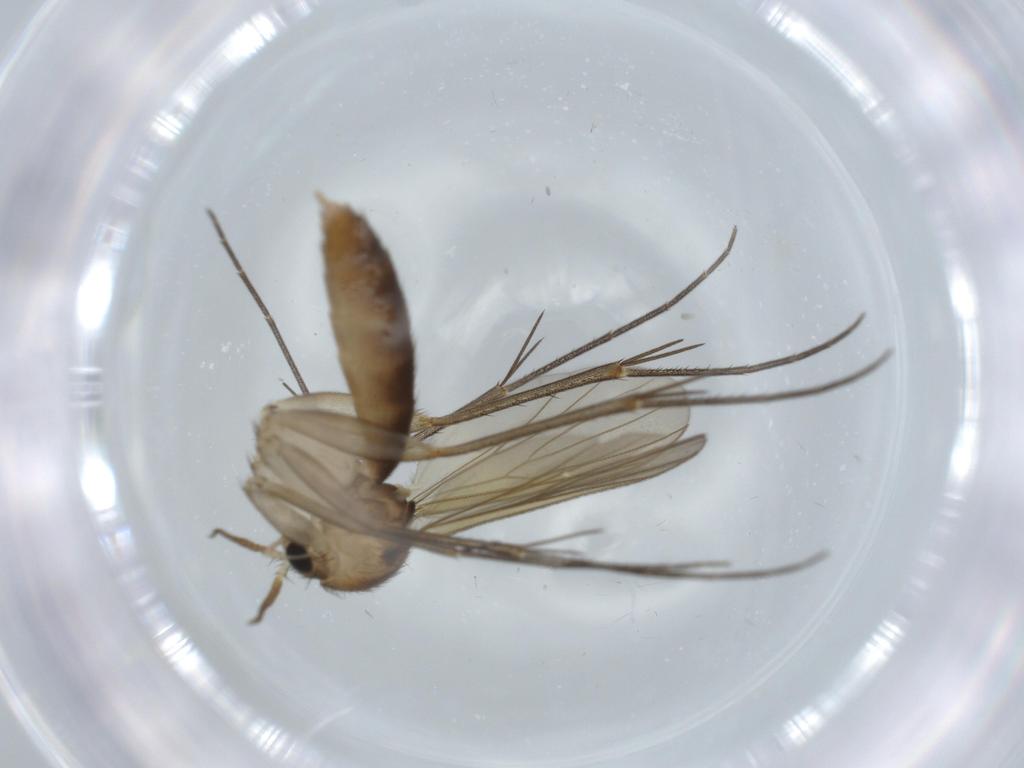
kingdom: Animalia
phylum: Arthropoda
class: Insecta
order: Diptera
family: Mycetophilidae
